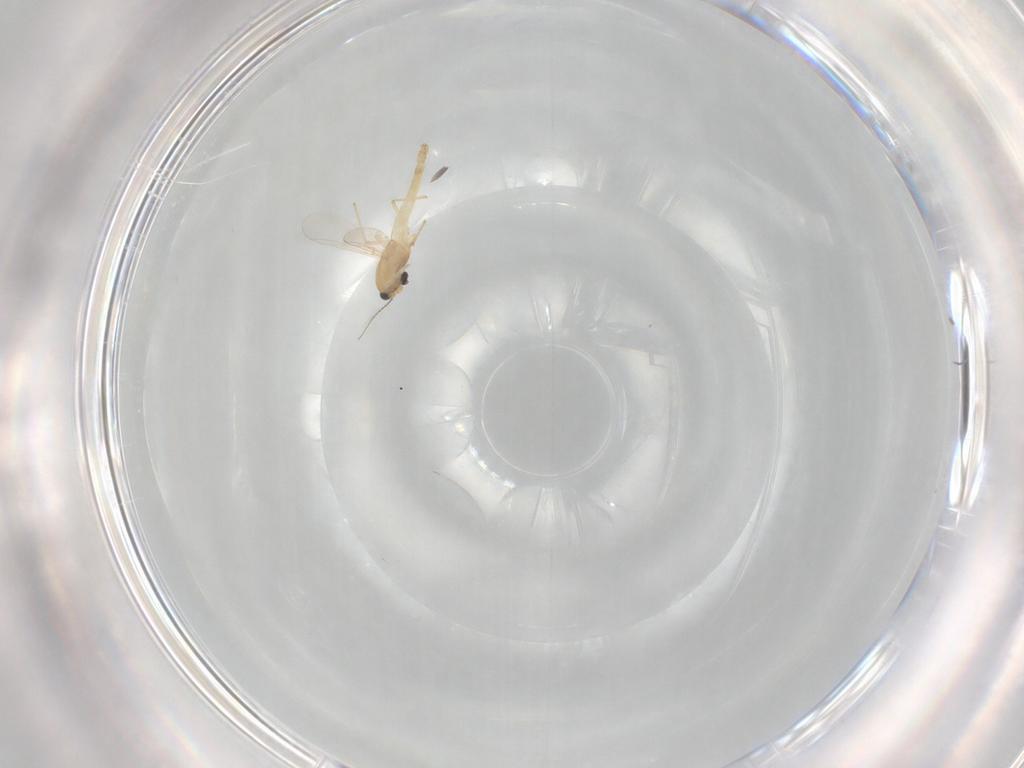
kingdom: Animalia
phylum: Arthropoda
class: Insecta
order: Diptera
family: Chironomidae
